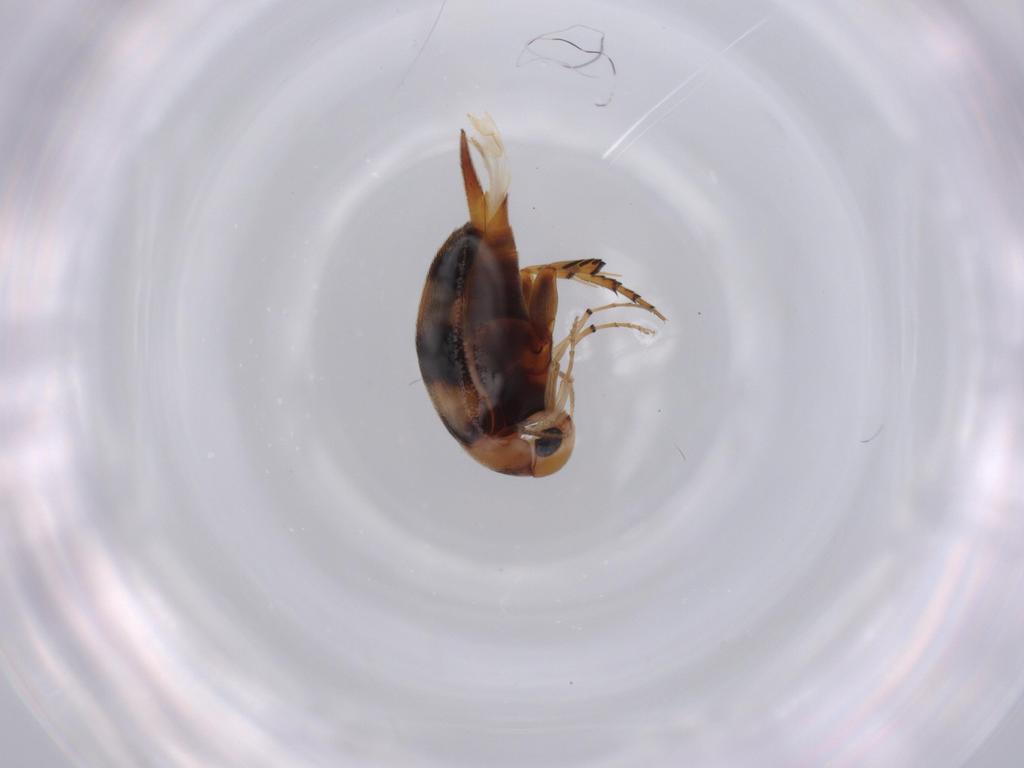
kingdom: Animalia
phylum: Arthropoda
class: Insecta
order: Coleoptera
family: Mordellidae
